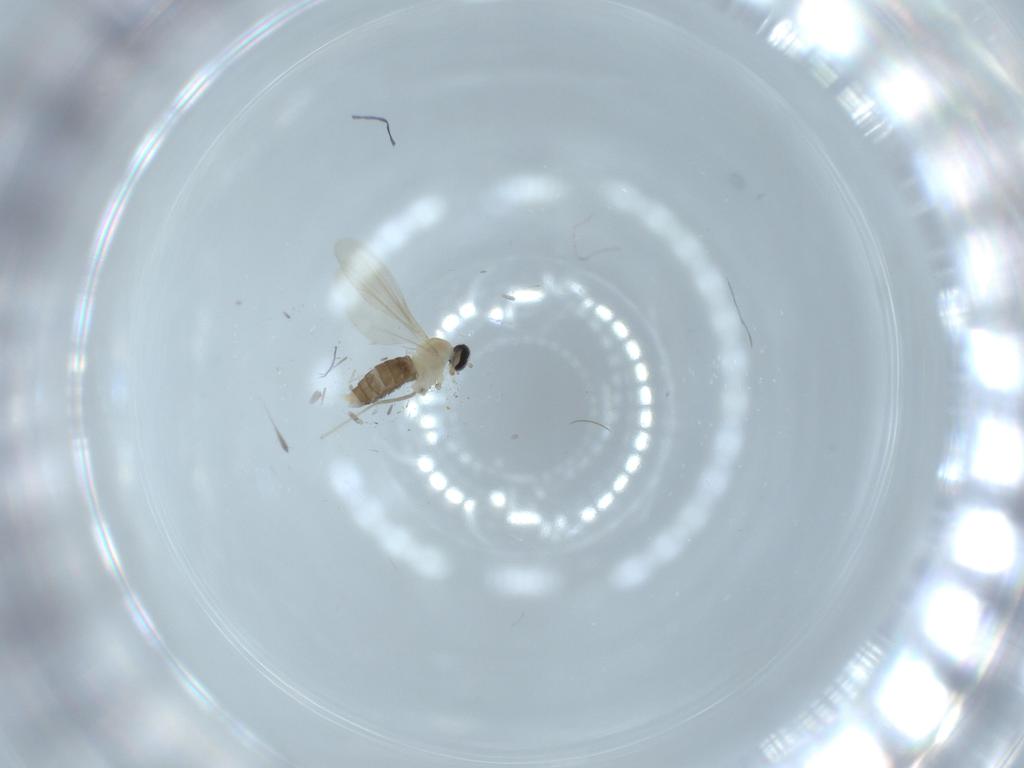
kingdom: Animalia
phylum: Arthropoda
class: Insecta
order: Diptera
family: Cecidomyiidae
